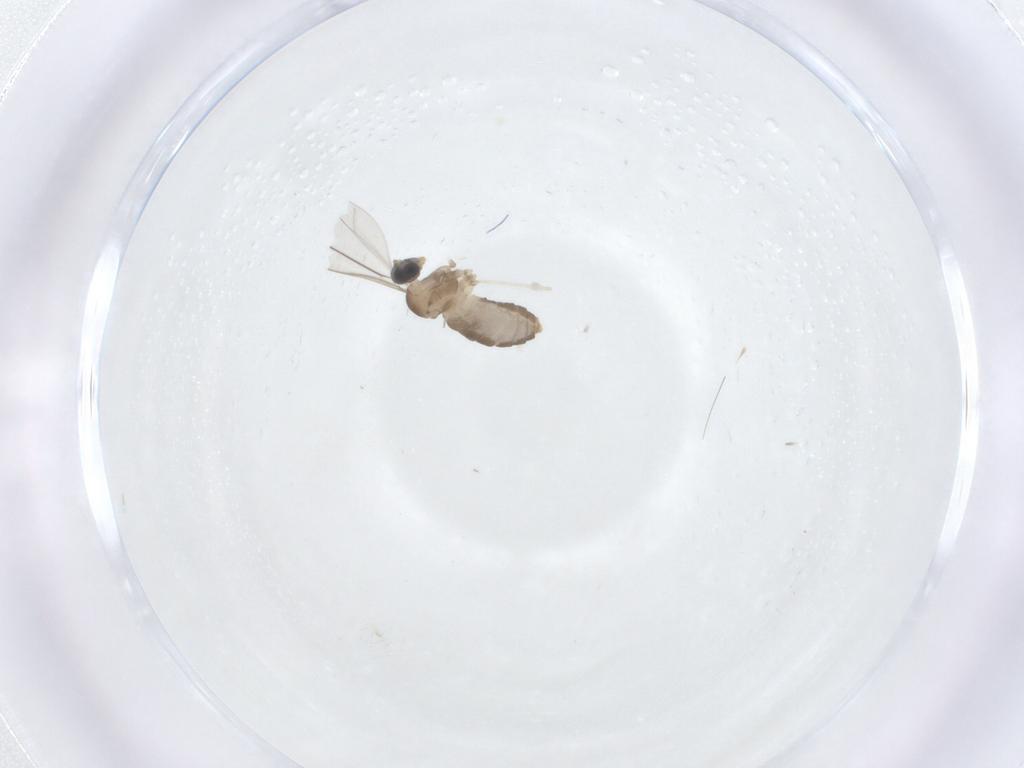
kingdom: Animalia
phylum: Arthropoda
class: Insecta
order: Diptera
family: Cecidomyiidae
